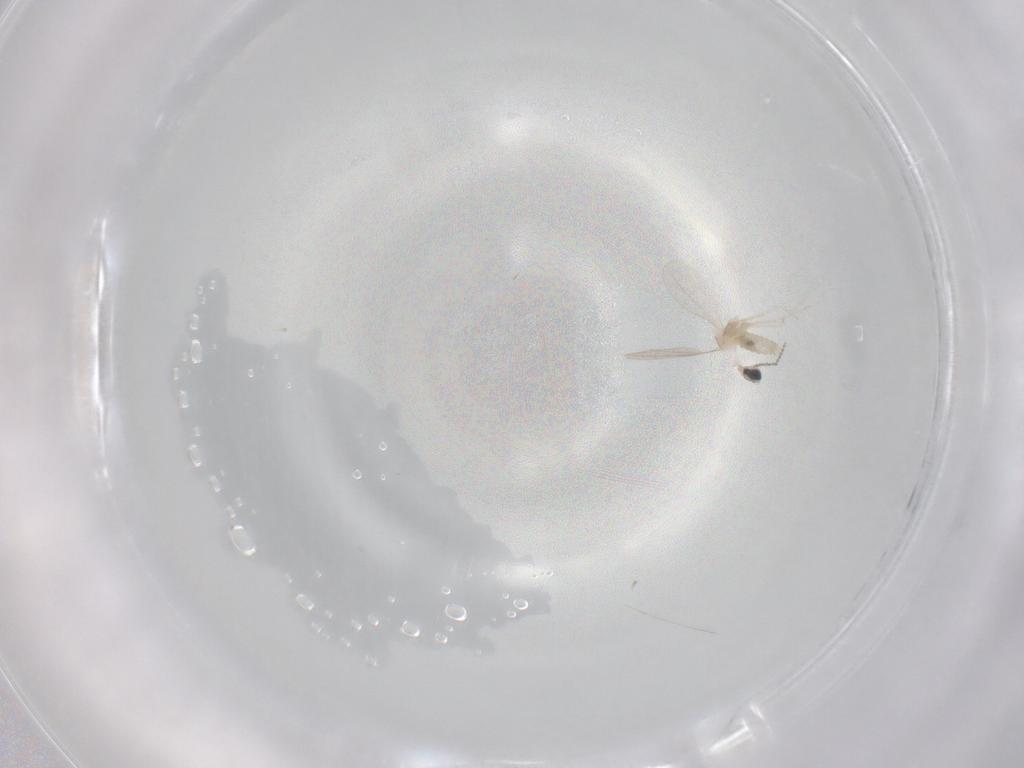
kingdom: Animalia
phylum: Arthropoda
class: Insecta
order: Diptera
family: Cecidomyiidae
